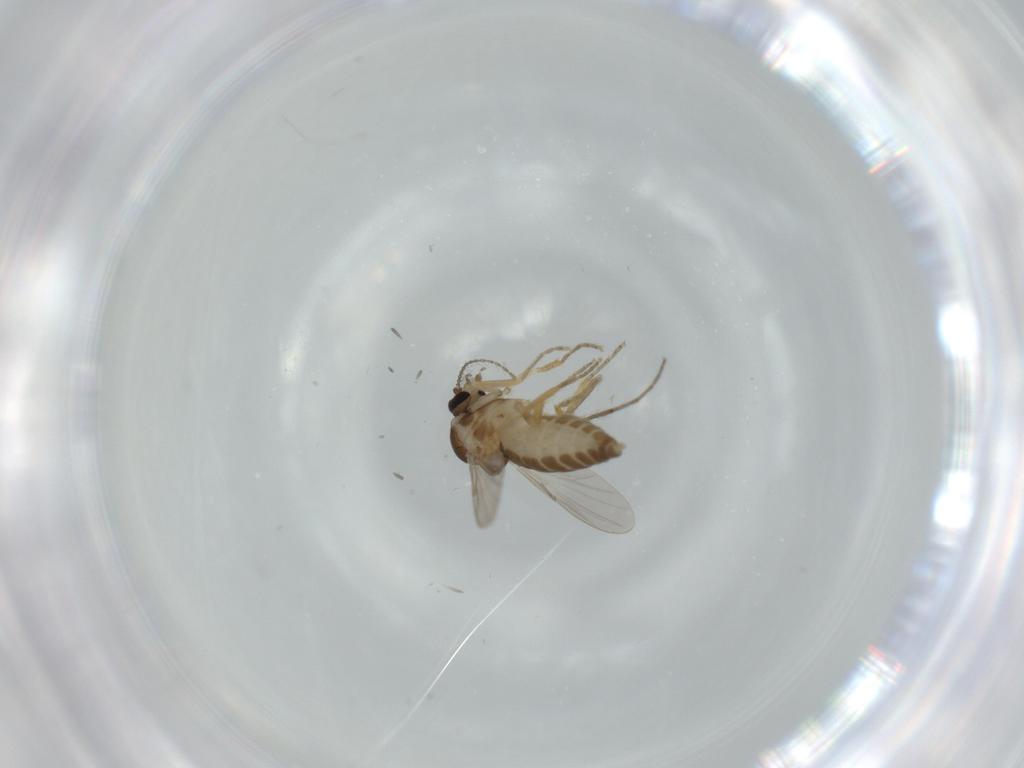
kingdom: Animalia
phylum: Arthropoda
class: Insecta
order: Diptera
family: Ceratopogonidae
